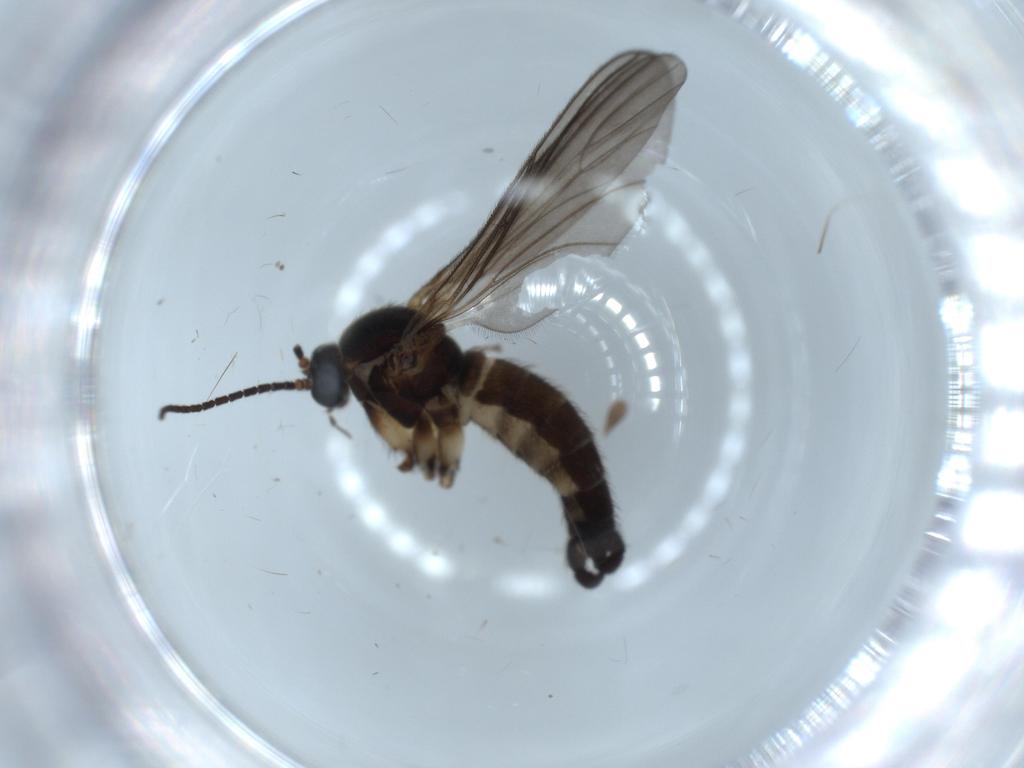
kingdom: Animalia
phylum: Arthropoda
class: Insecta
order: Diptera
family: Sciaridae
